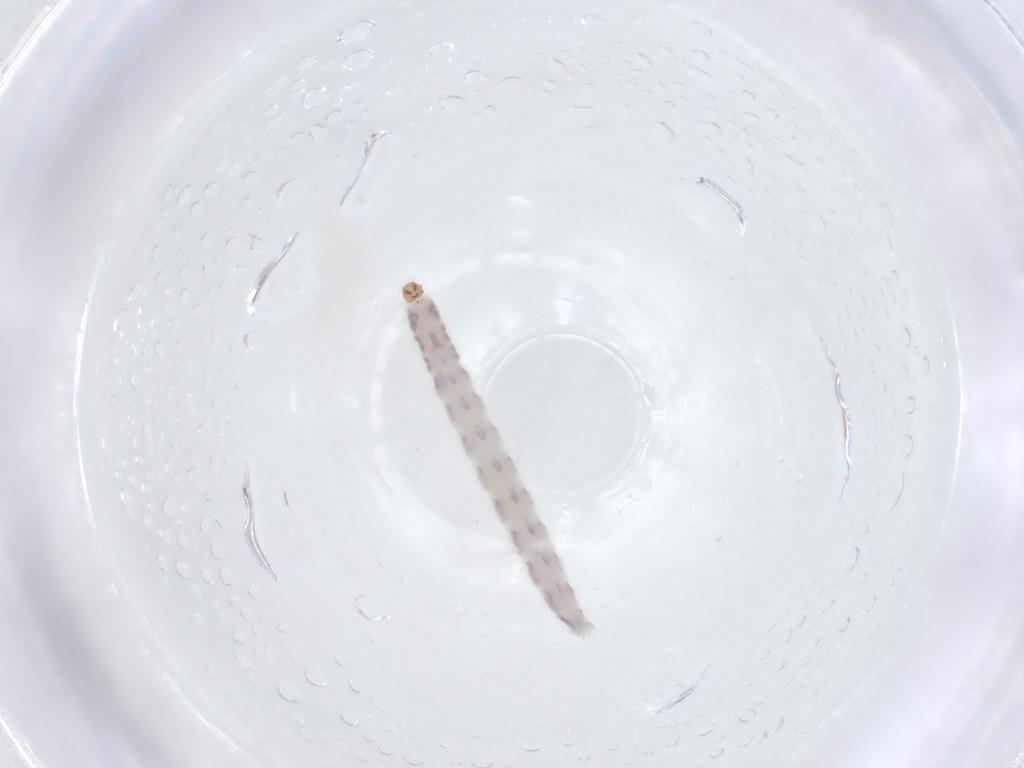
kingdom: Animalia
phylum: Arthropoda
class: Insecta
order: Diptera
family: Chironomidae
